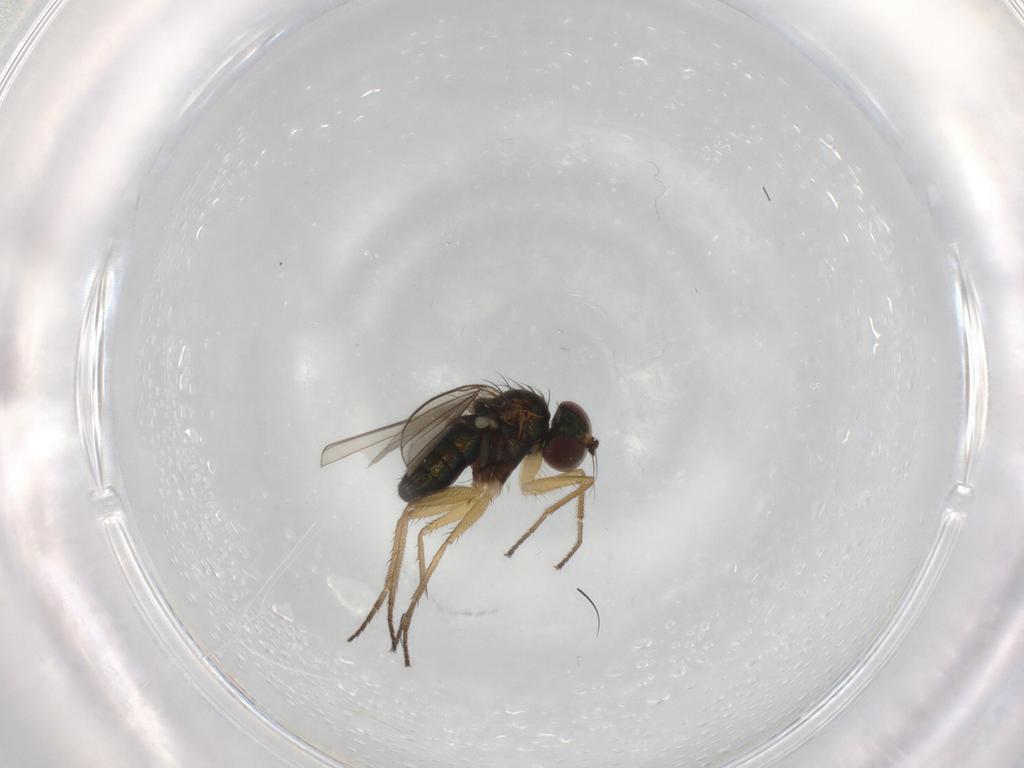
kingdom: Animalia
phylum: Arthropoda
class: Insecta
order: Diptera
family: Dolichopodidae
